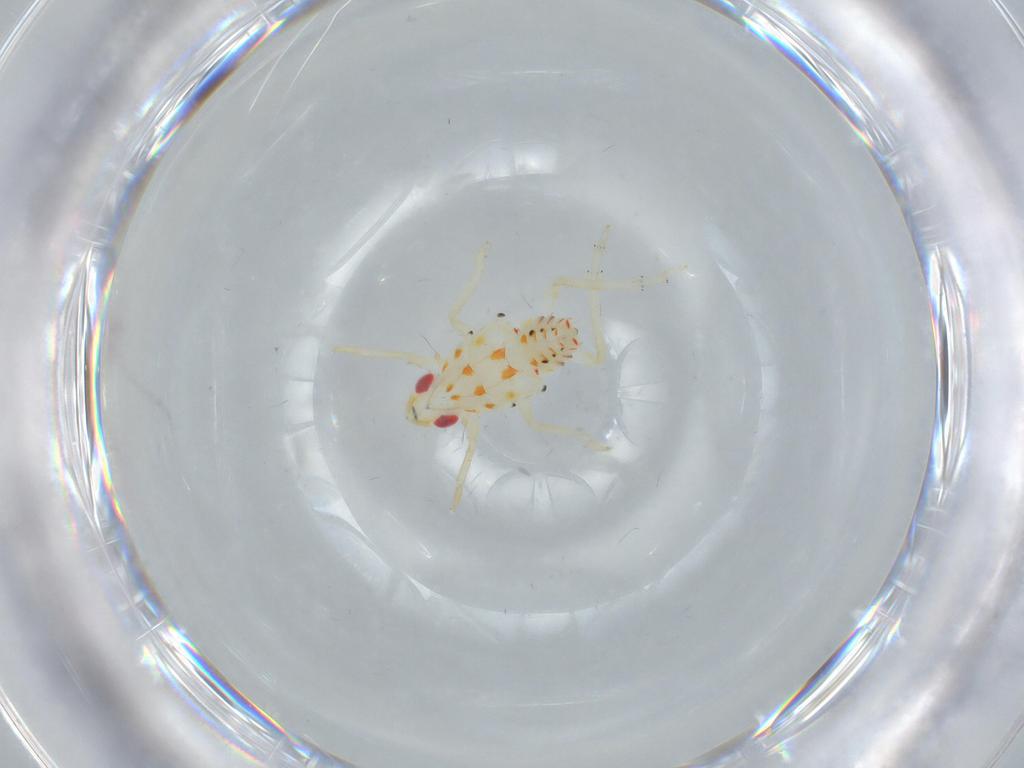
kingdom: Animalia
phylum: Arthropoda
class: Insecta
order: Hemiptera
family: Tropiduchidae
